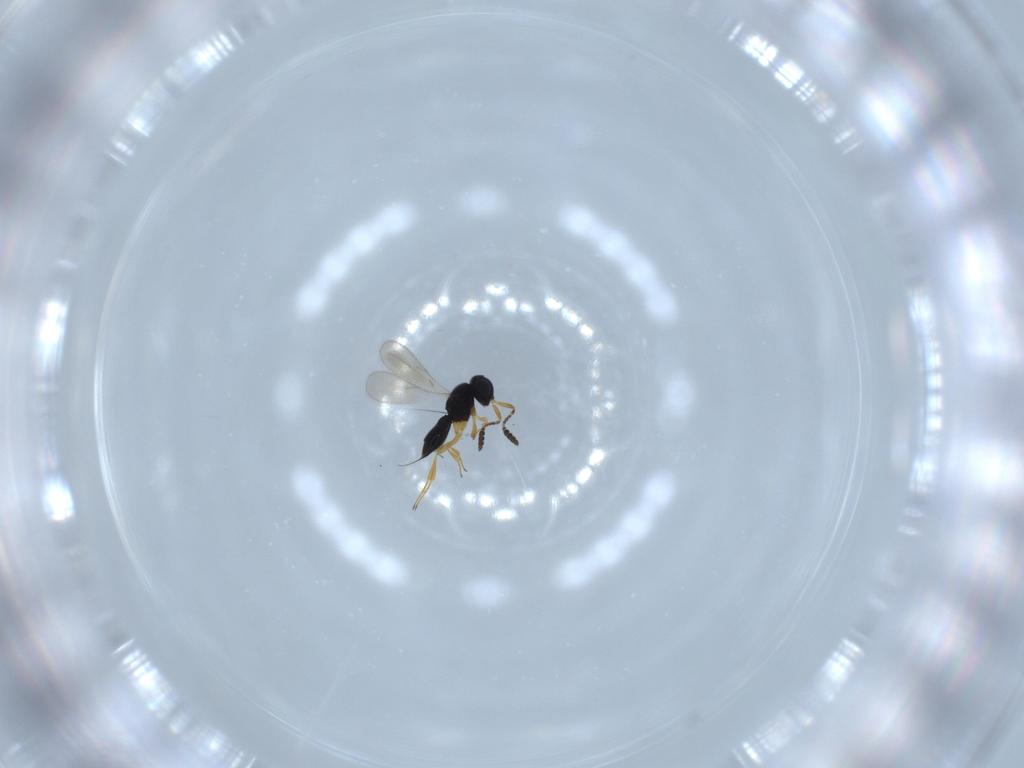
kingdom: Animalia
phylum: Arthropoda
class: Insecta
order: Hymenoptera
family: Scelionidae
